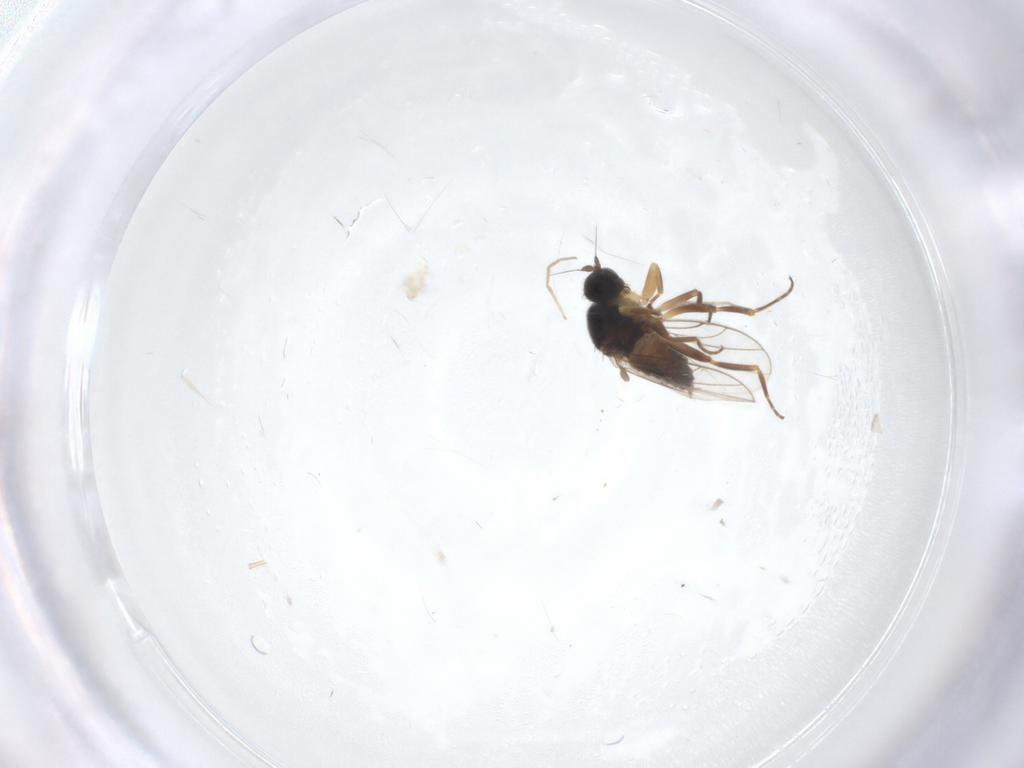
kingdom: Animalia
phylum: Arthropoda
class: Insecta
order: Diptera
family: Hybotidae
